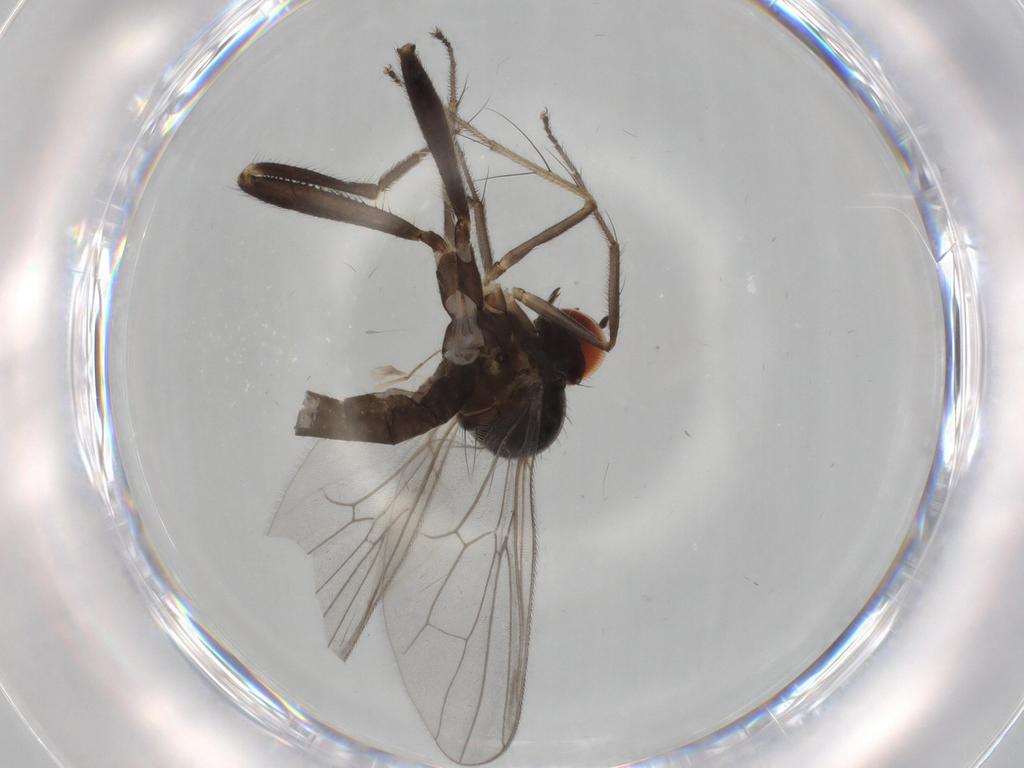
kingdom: Animalia
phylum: Arthropoda
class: Insecta
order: Diptera
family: Hybotidae
